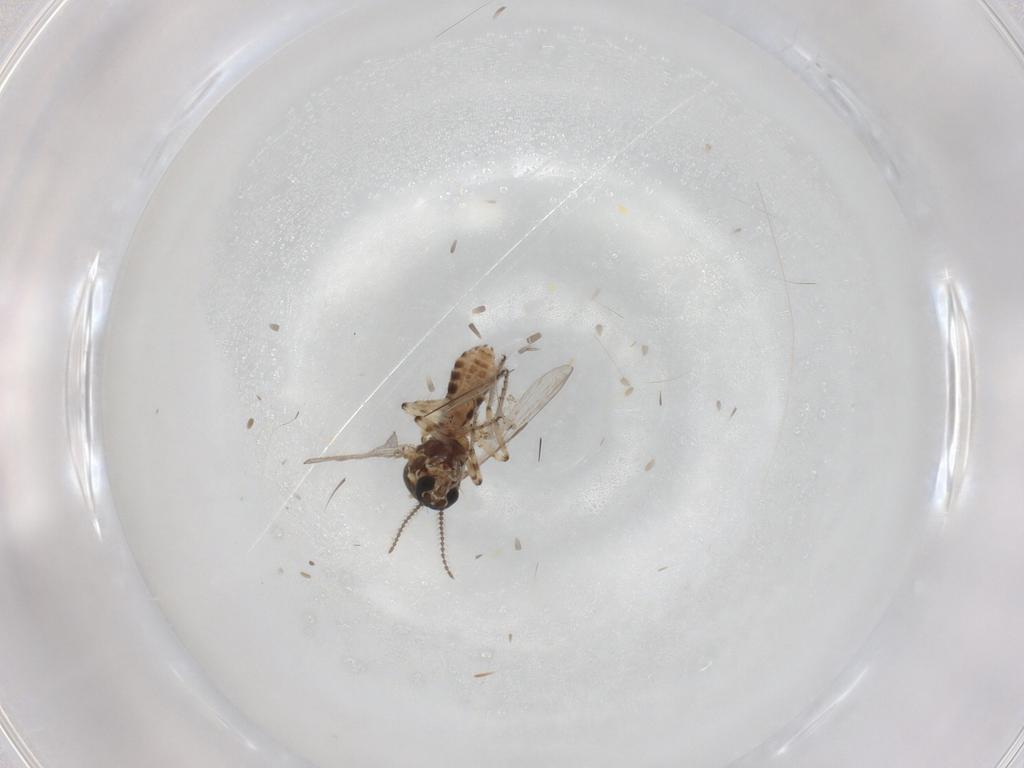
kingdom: Animalia
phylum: Arthropoda
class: Insecta
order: Diptera
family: Ceratopogonidae
